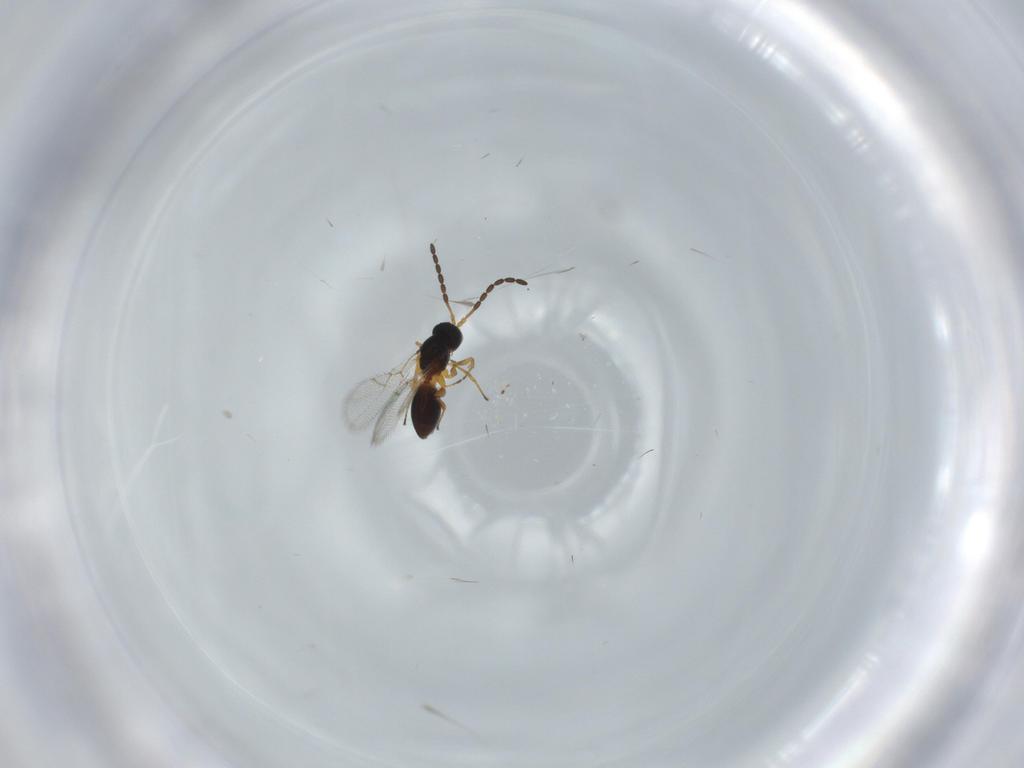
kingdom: Animalia
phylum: Arthropoda
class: Insecta
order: Hymenoptera
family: Figitidae
